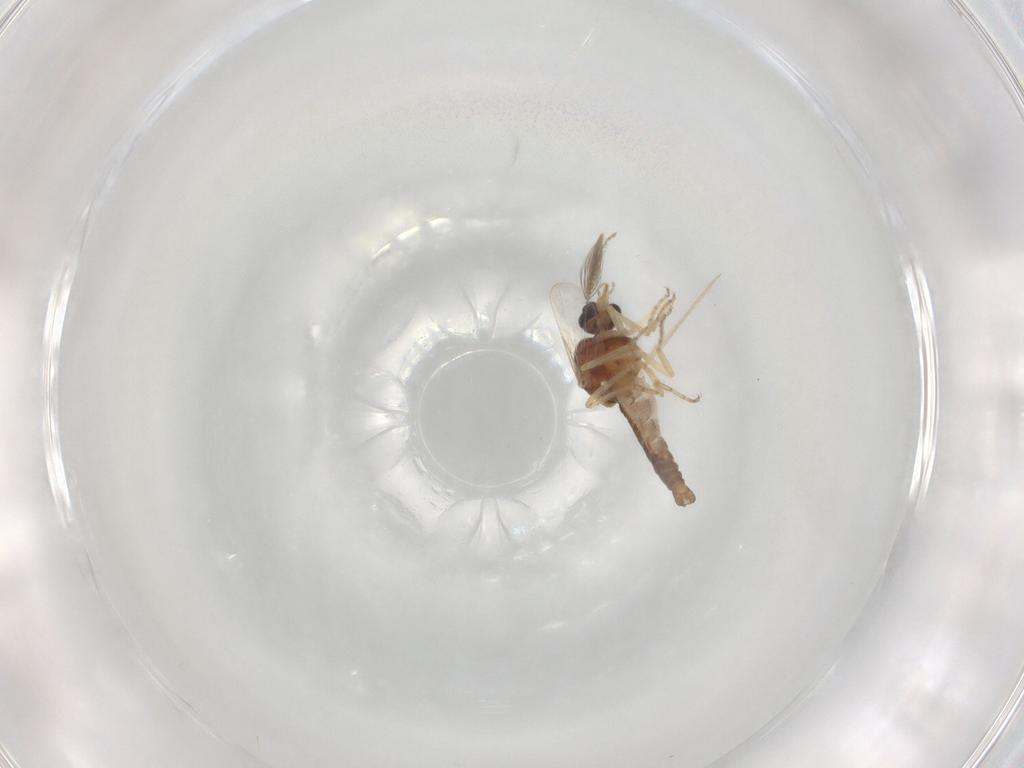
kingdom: Animalia
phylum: Arthropoda
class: Insecta
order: Diptera
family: Ceratopogonidae
